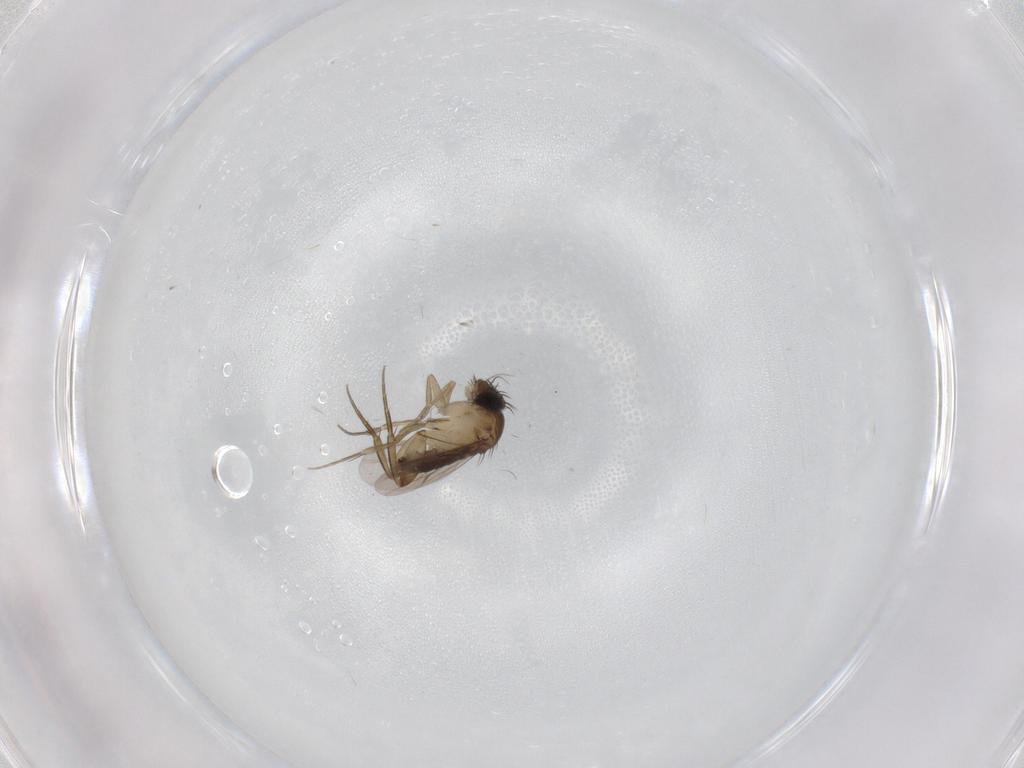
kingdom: Animalia
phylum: Arthropoda
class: Insecta
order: Diptera
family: Phoridae
